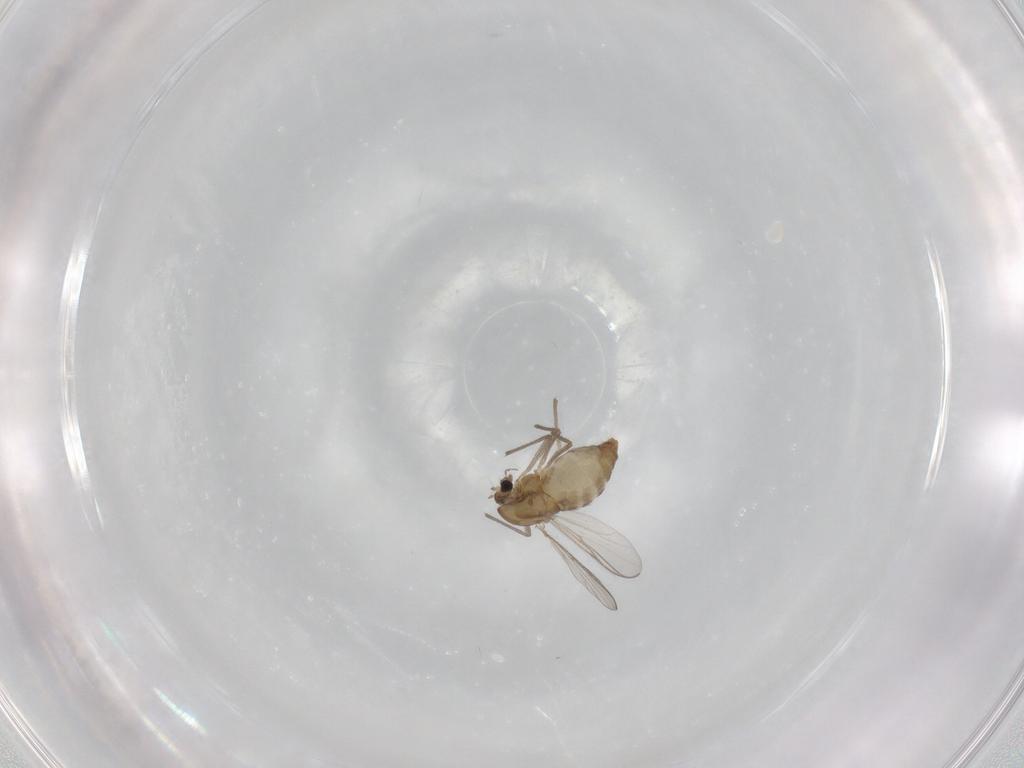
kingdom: Animalia
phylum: Arthropoda
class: Insecta
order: Diptera
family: Chironomidae
